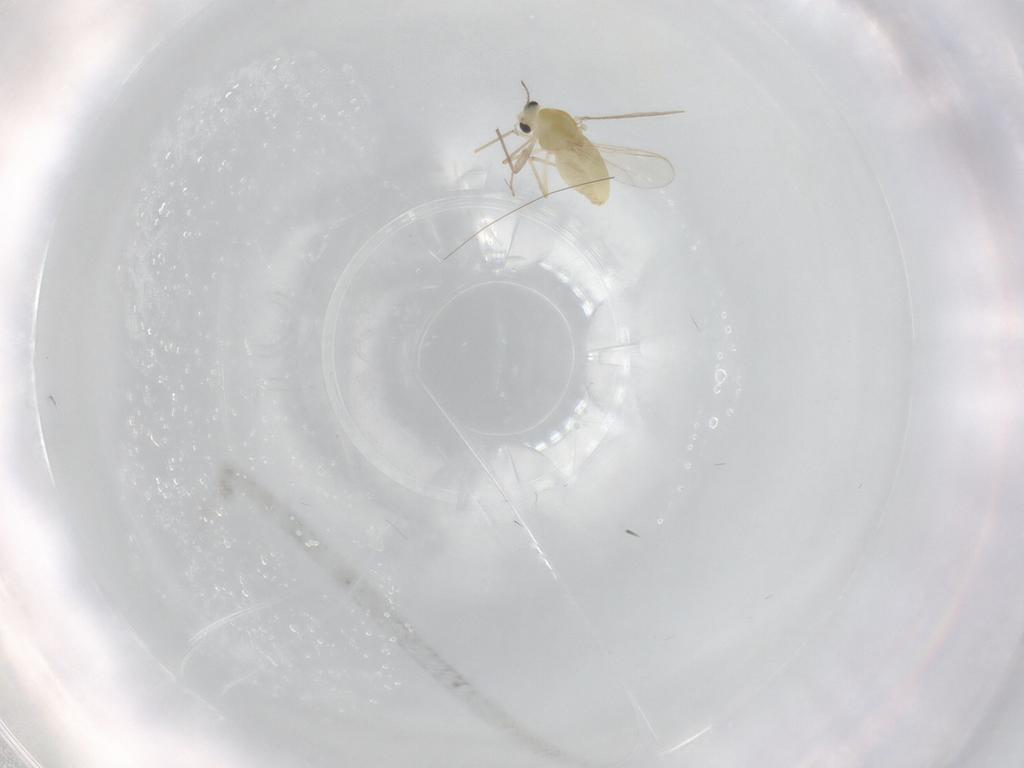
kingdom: Animalia
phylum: Arthropoda
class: Insecta
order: Diptera
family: Chironomidae
